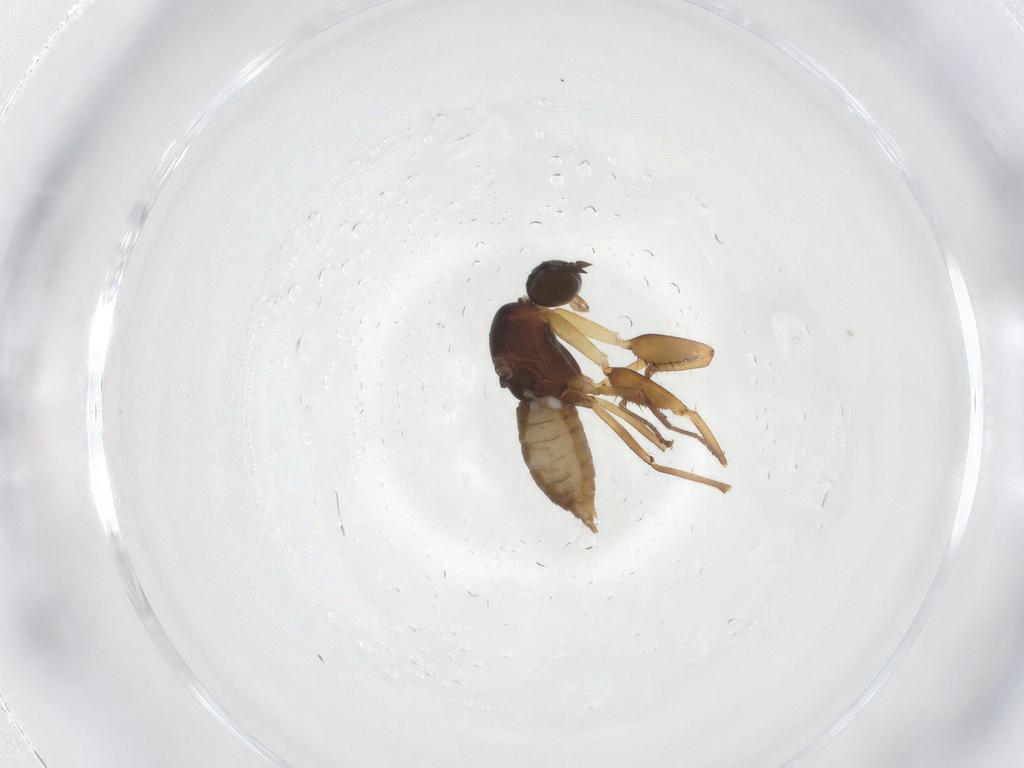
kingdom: Animalia
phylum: Arthropoda
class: Insecta
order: Diptera
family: Empididae
